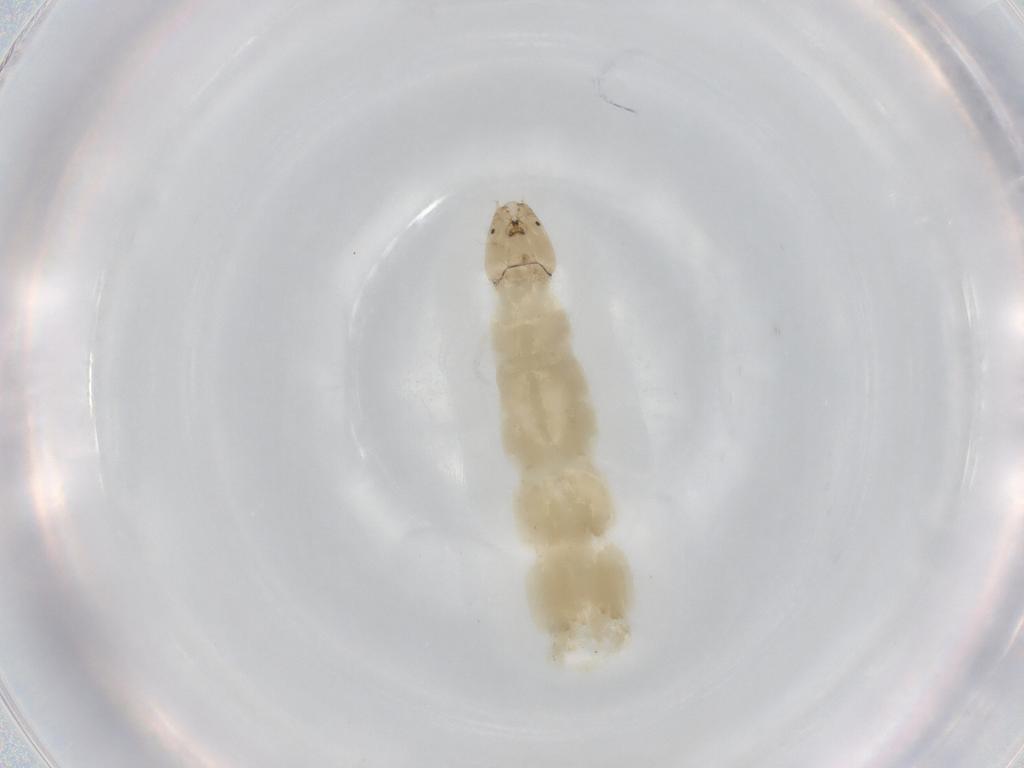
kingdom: Animalia
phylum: Arthropoda
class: Insecta
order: Diptera
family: Chironomidae
